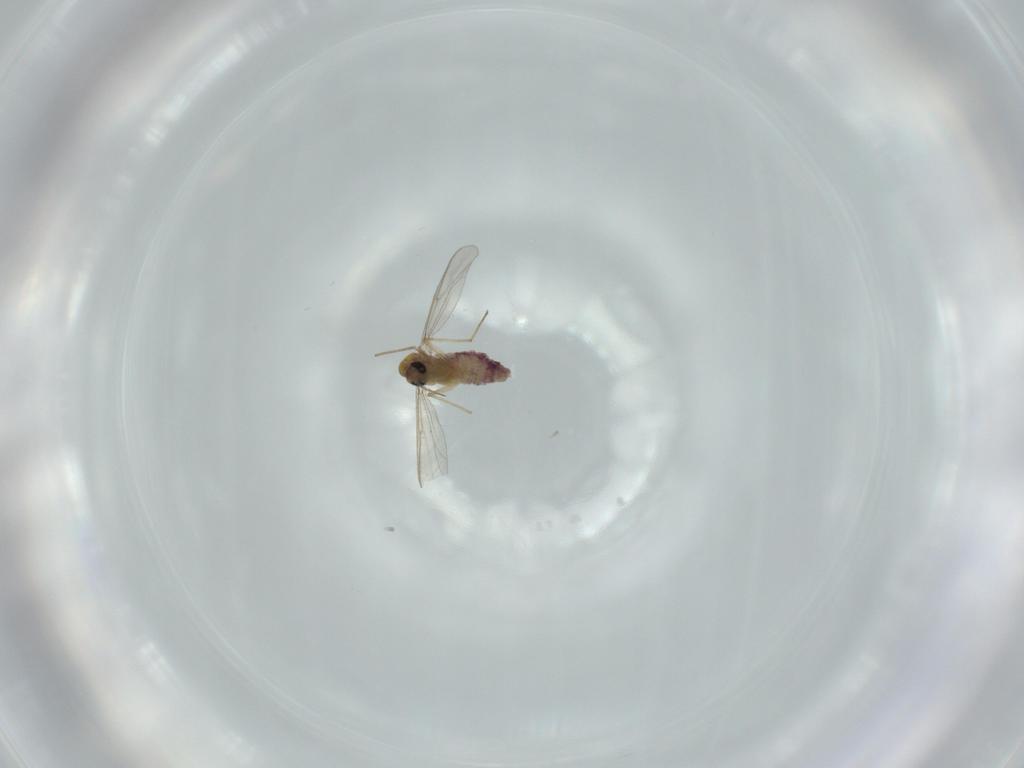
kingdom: Animalia
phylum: Arthropoda
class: Insecta
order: Diptera
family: Chironomidae
